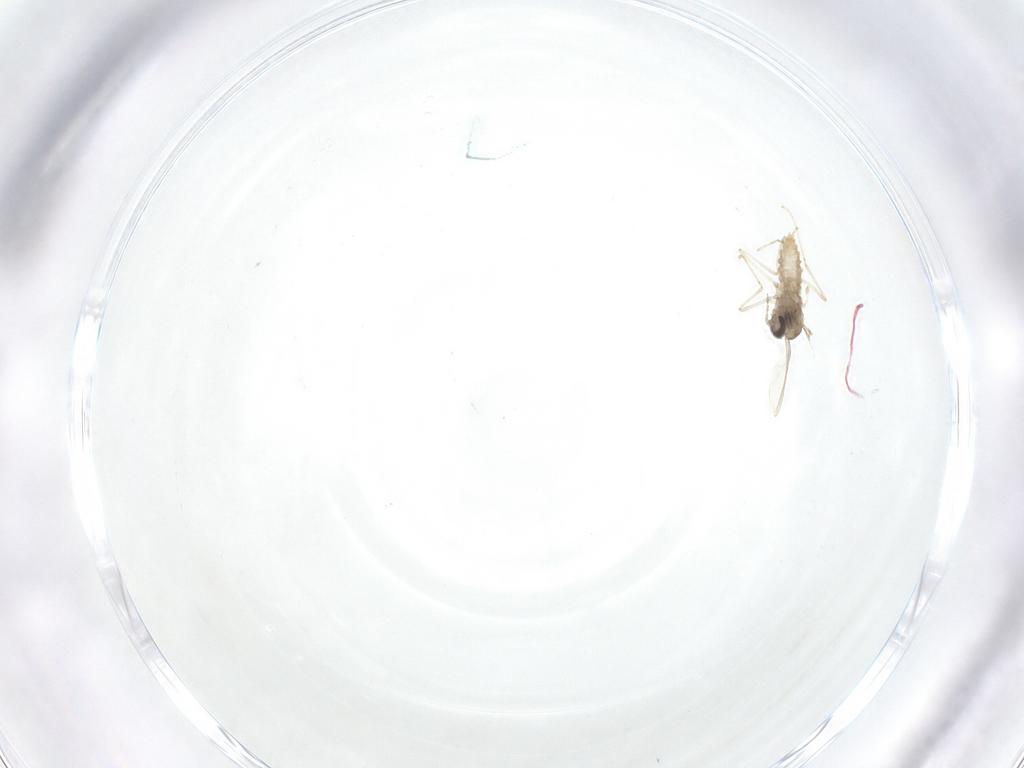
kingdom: Animalia
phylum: Arthropoda
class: Insecta
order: Diptera
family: Cecidomyiidae
